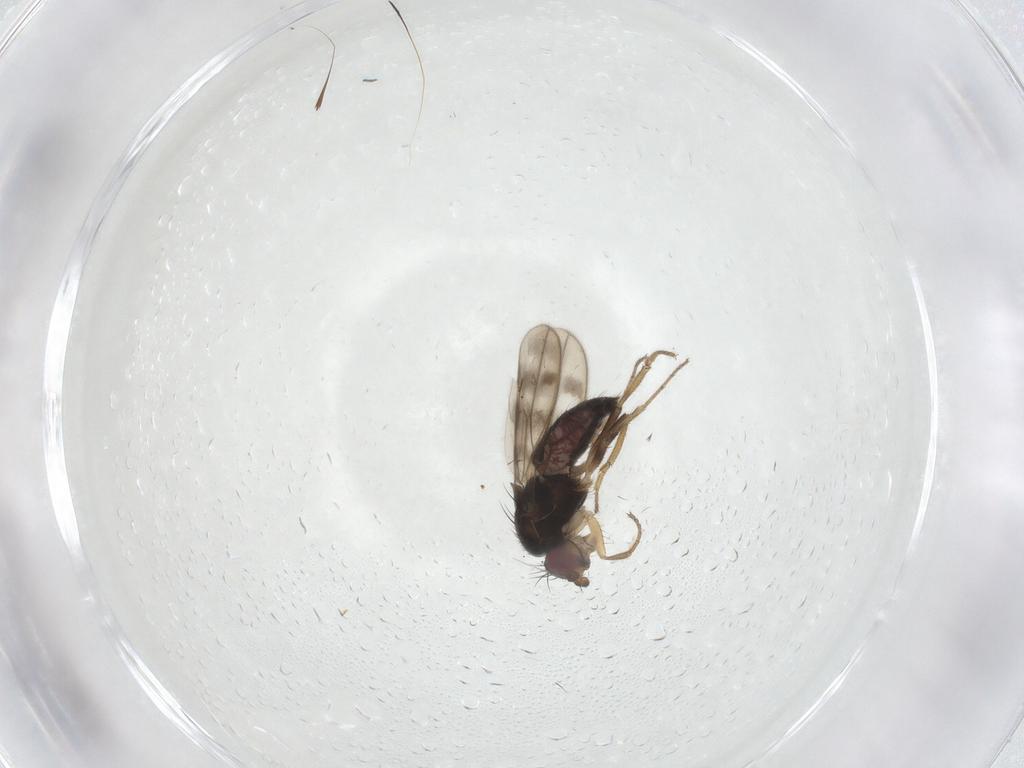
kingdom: Animalia
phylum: Arthropoda
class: Insecta
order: Diptera
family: Sphaeroceridae
